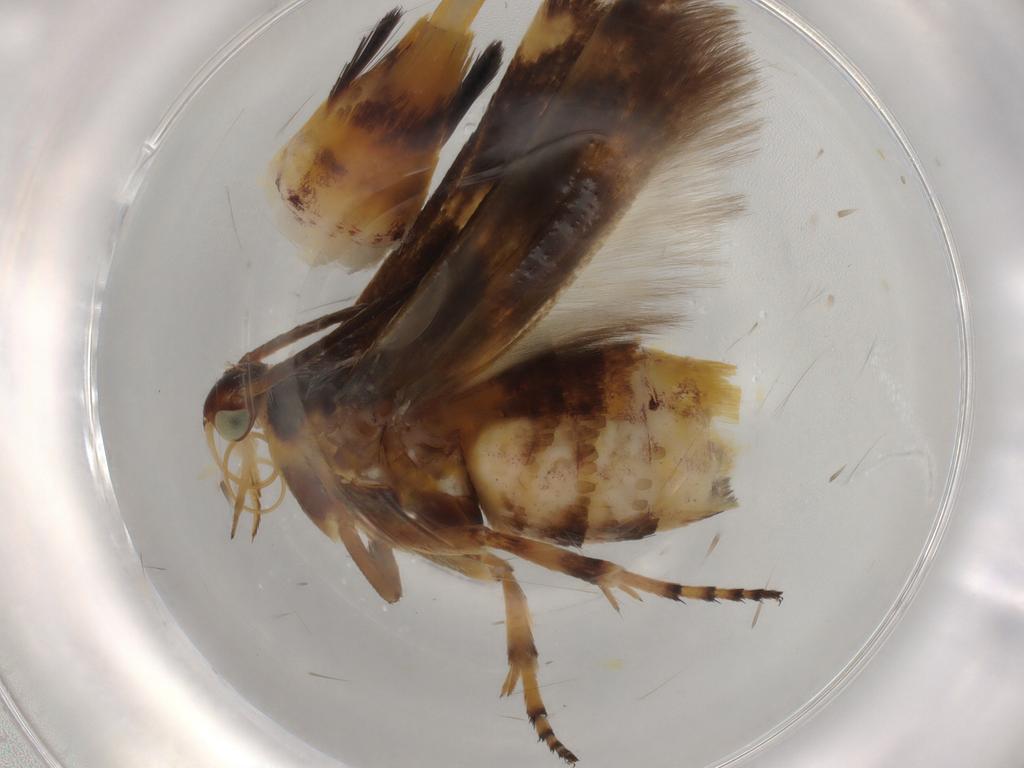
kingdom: Animalia
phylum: Arthropoda
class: Insecta
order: Lepidoptera
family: Scythrididae
